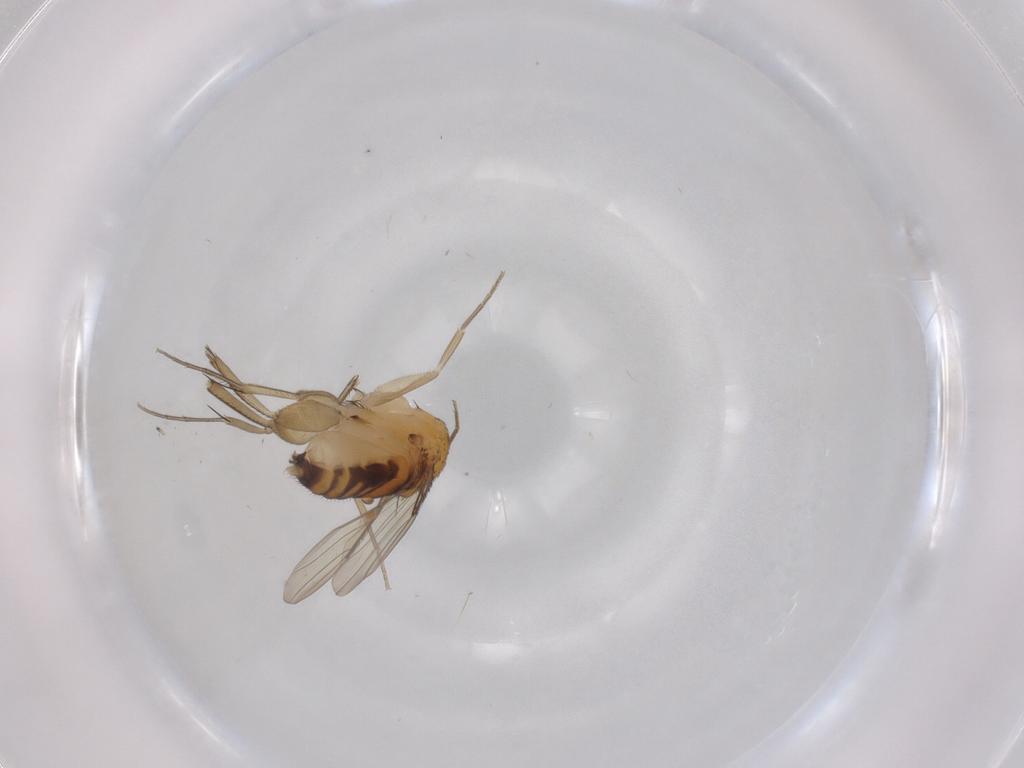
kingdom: Animalia
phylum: Arthropoda
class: Insecta
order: Diptera
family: Phoridae
